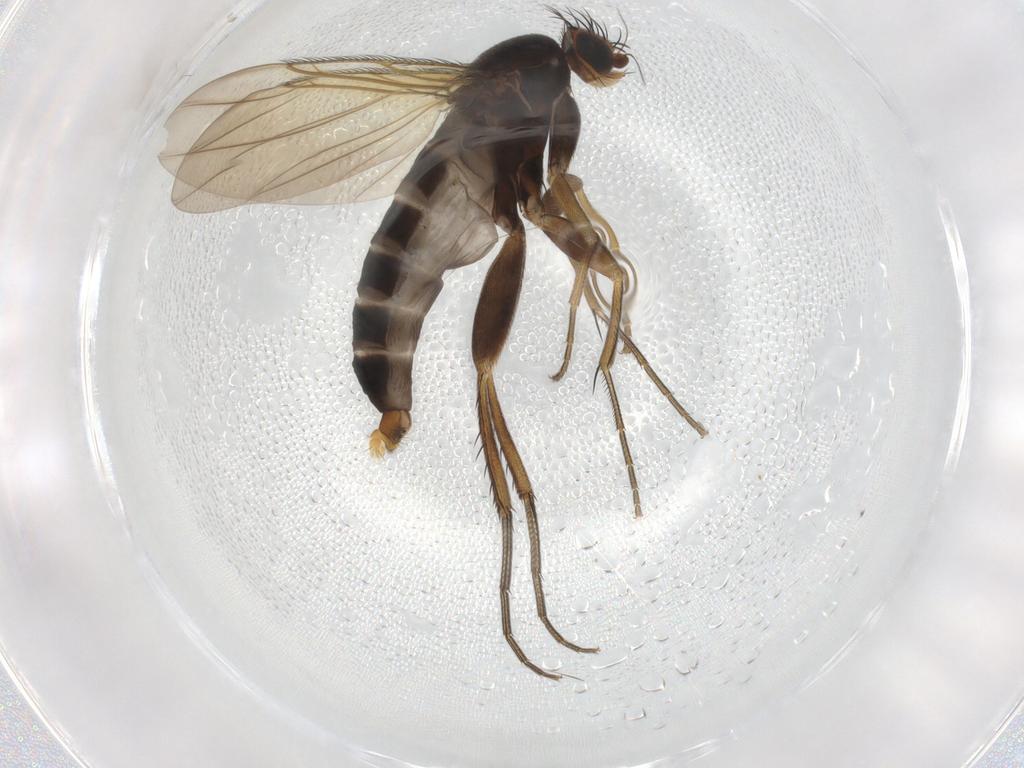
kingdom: Animalia
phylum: Arthropoda
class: Insecta
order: Diptera
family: Phoridae
